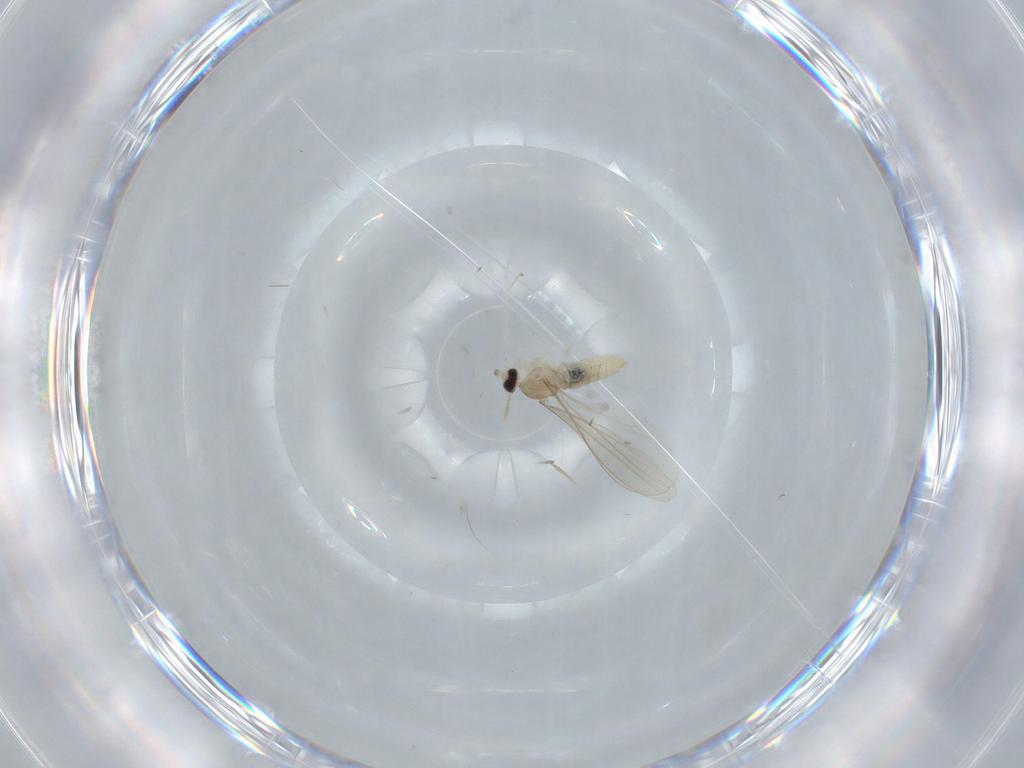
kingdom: Animalia
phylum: Arthropoda
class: Insecta
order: Diptera
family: Cecidomyiidae
